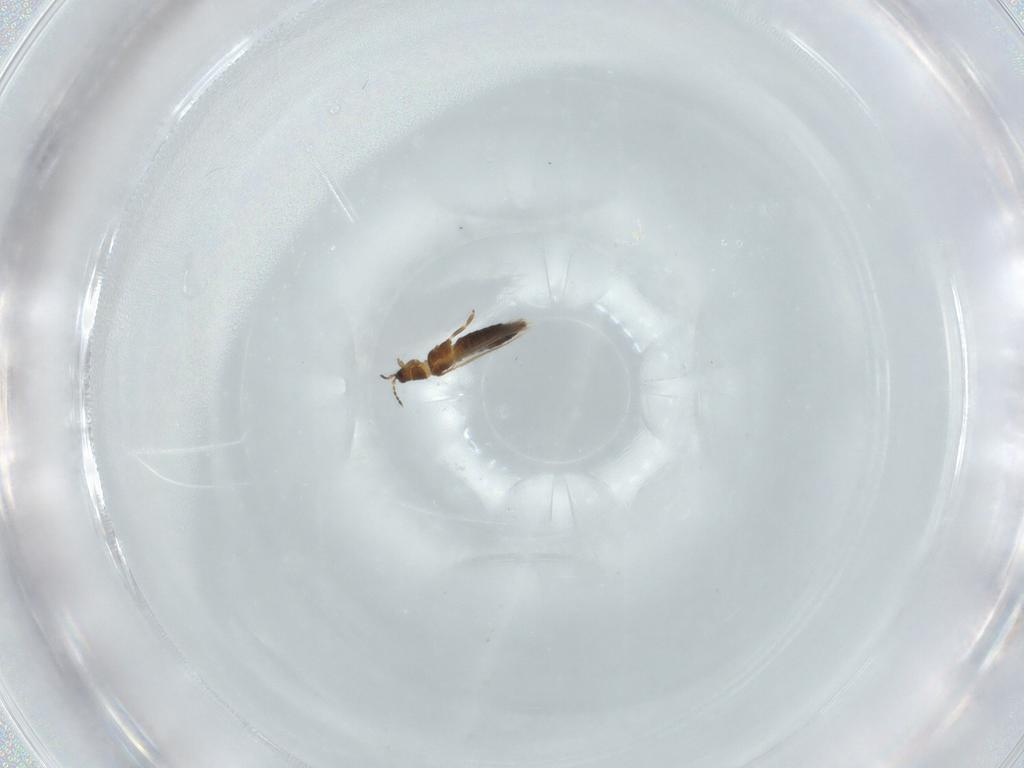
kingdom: Animalia
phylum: Arthropoda
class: Insecta
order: Thysanoptera
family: Thripidae
